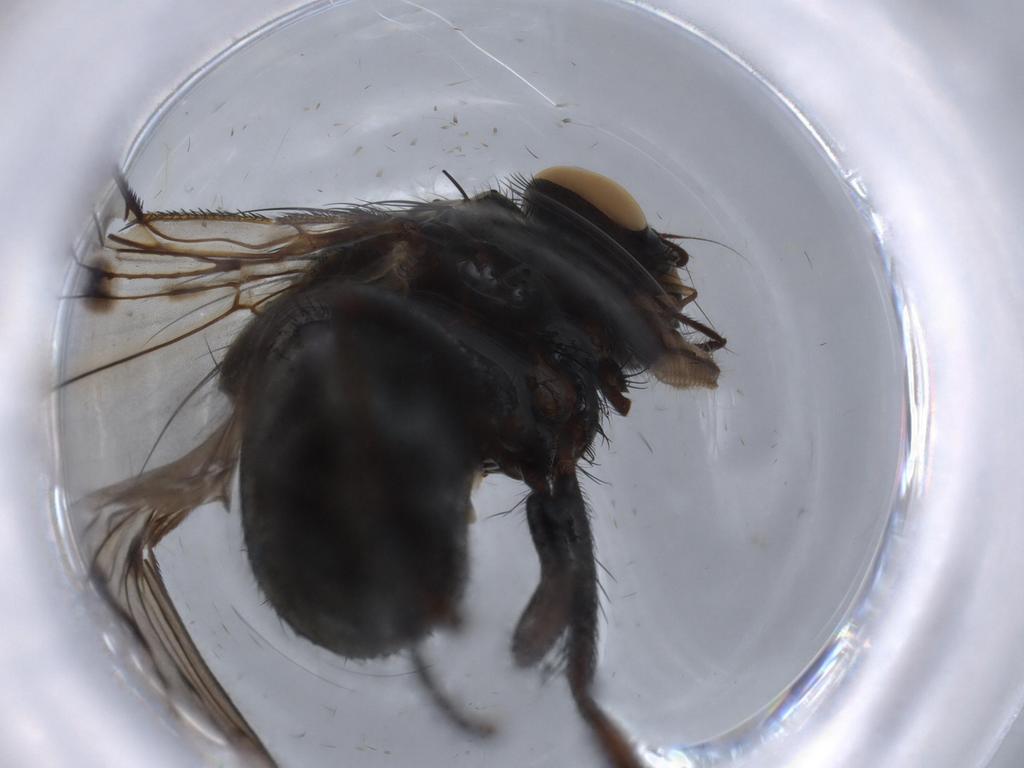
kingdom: Animalia
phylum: Arthropoda
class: Insecta
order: Diptera
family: Muscidae
